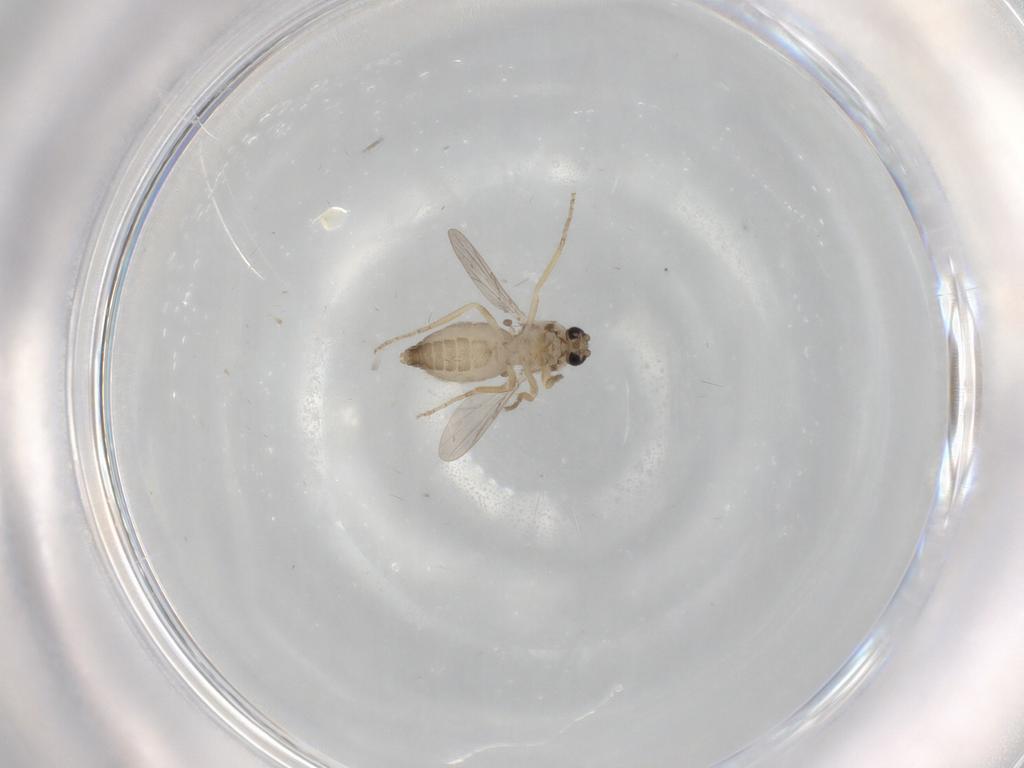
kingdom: Animalia
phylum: Arthropoda
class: Insecta
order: Diptera
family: Ceratopogonidae
